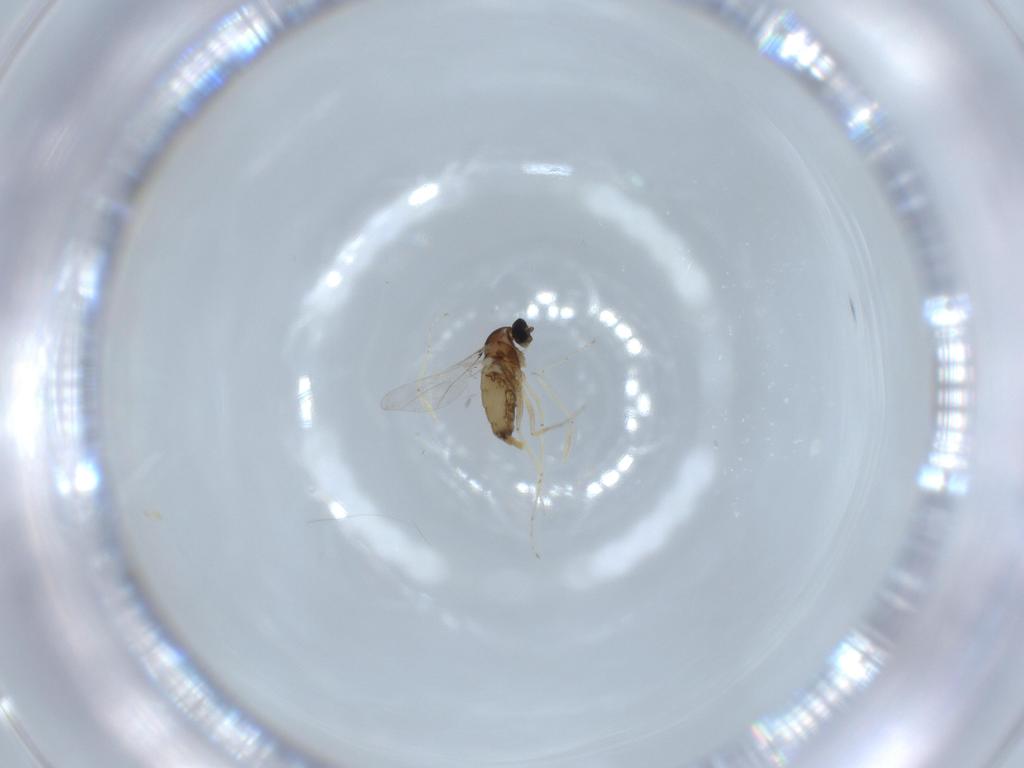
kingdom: Animalia
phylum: Arthropoda
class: Insecta
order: Diptera
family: Cecidomyiidae
